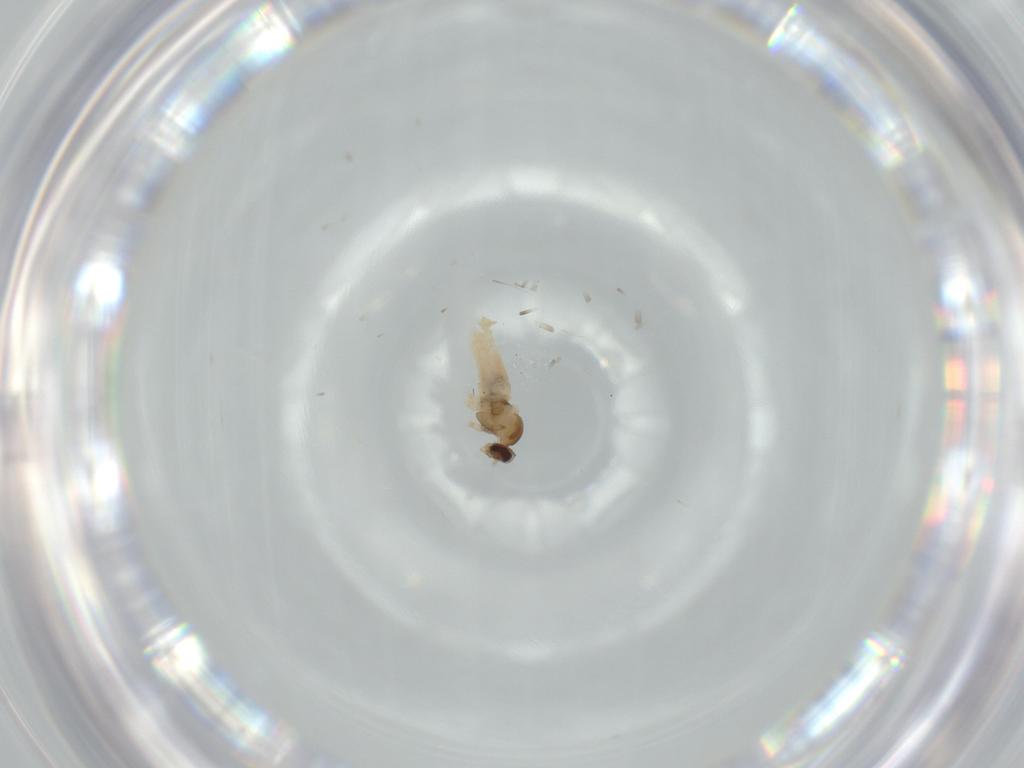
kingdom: Animalia
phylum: Arthropoda
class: Insecta
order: Diptera
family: Cecidomyiidae
